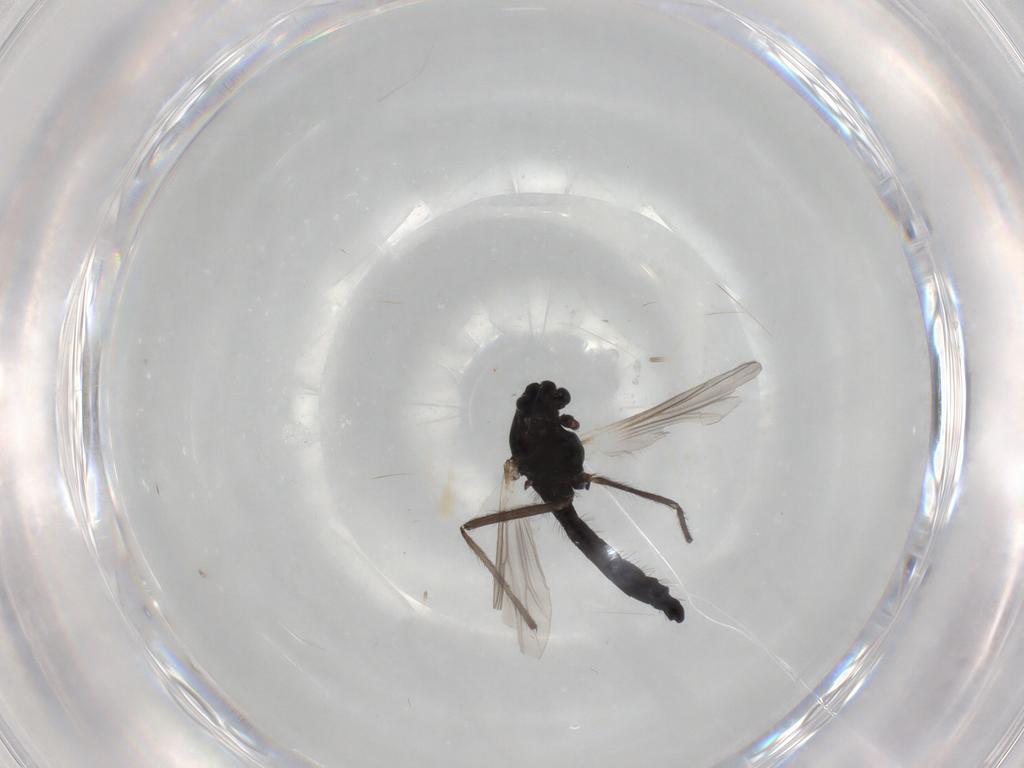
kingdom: Animalia
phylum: Arthropoda
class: Insecta
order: Diptera
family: Chironomidae
